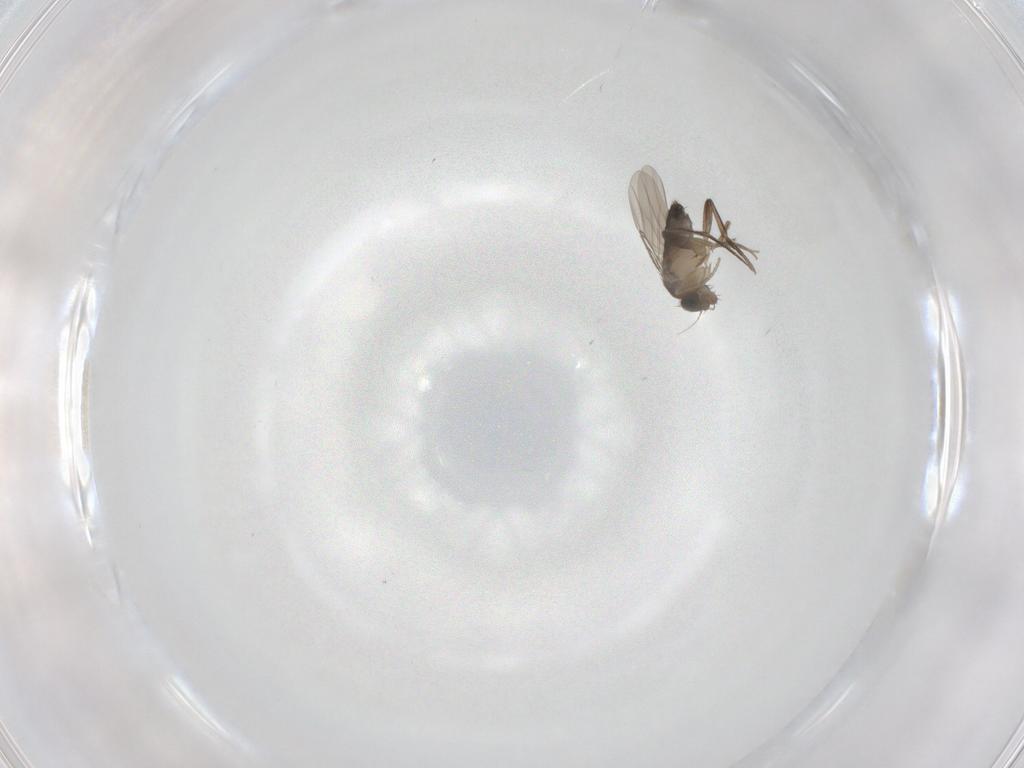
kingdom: Animalia
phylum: Arthropoda
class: Insecta
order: Diptera
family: Phoridae
